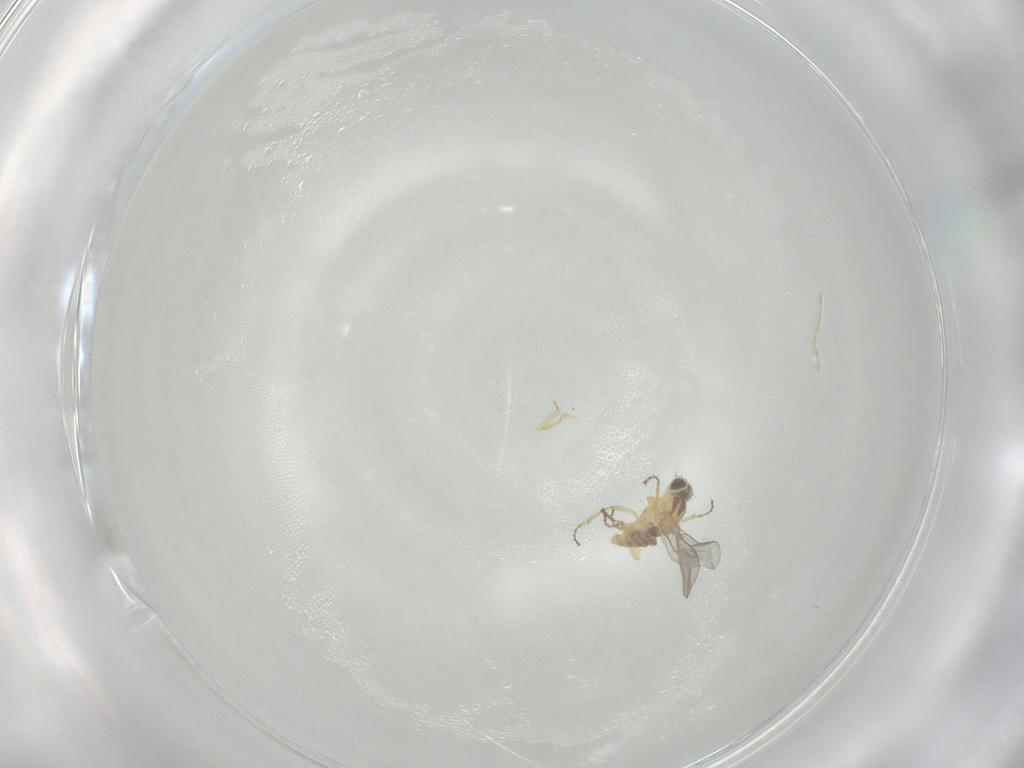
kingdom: Animalia
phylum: Arthropoda
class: Insecta
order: Diptera
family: Agromyzidae
